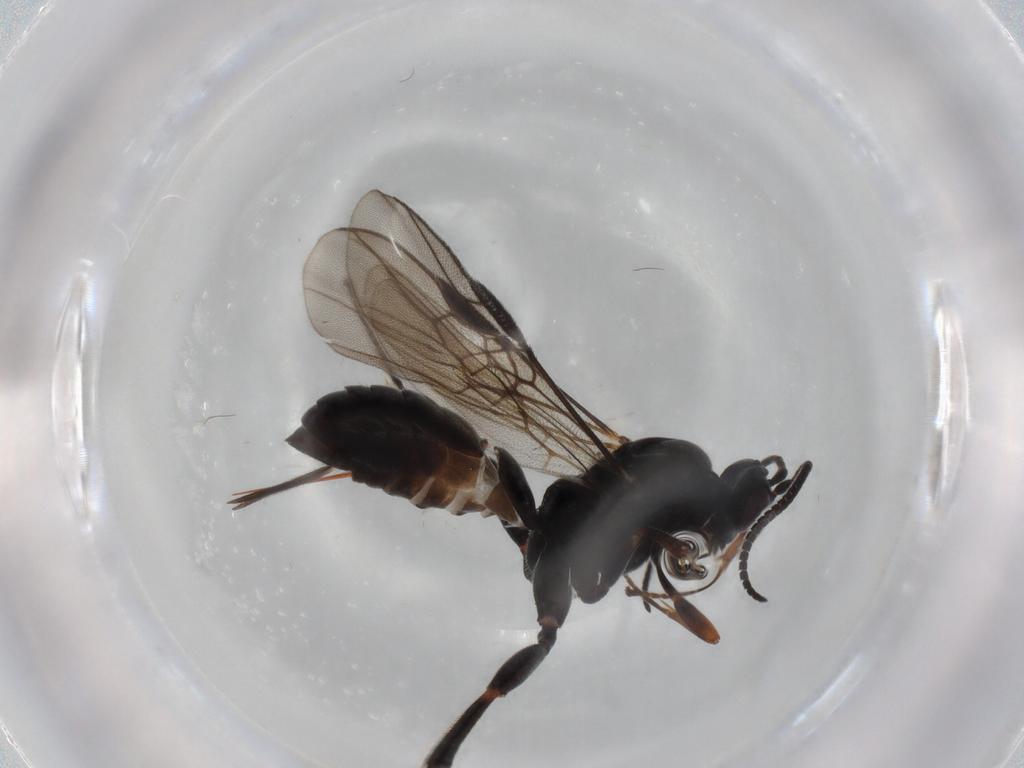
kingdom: Animalia
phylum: Arthropoda
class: Insecta
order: Hymenoptera
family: Braconidae
